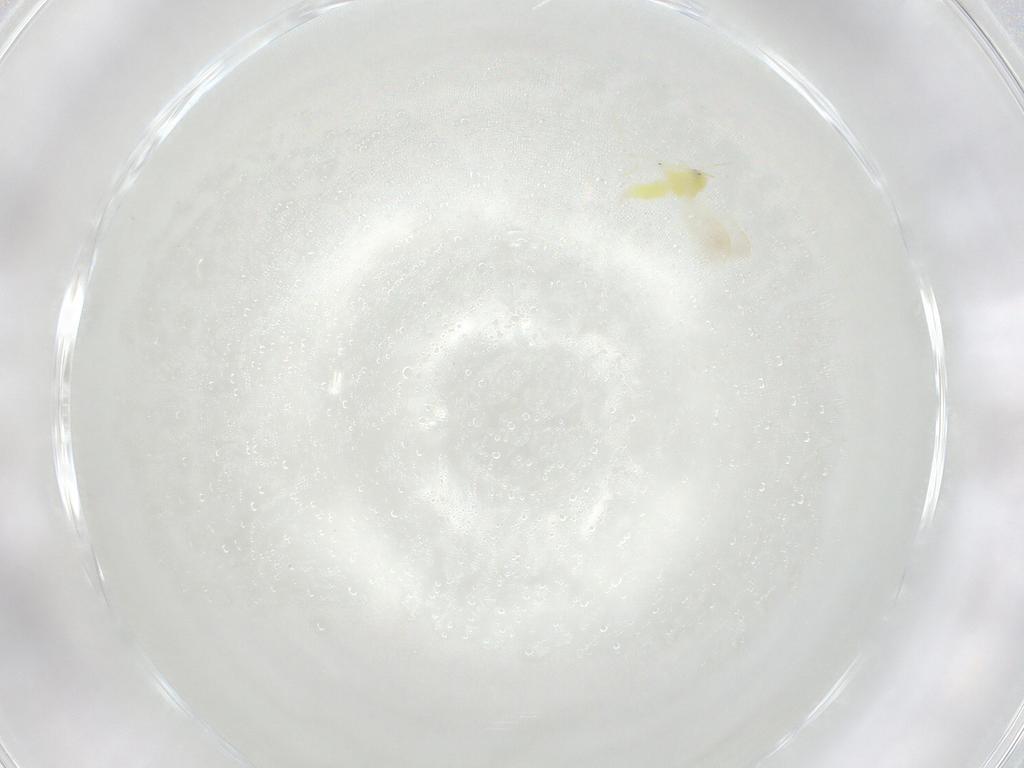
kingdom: Animalia
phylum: Arthropoda
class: Insecta
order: Hemiptera
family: Aleyrodidae
